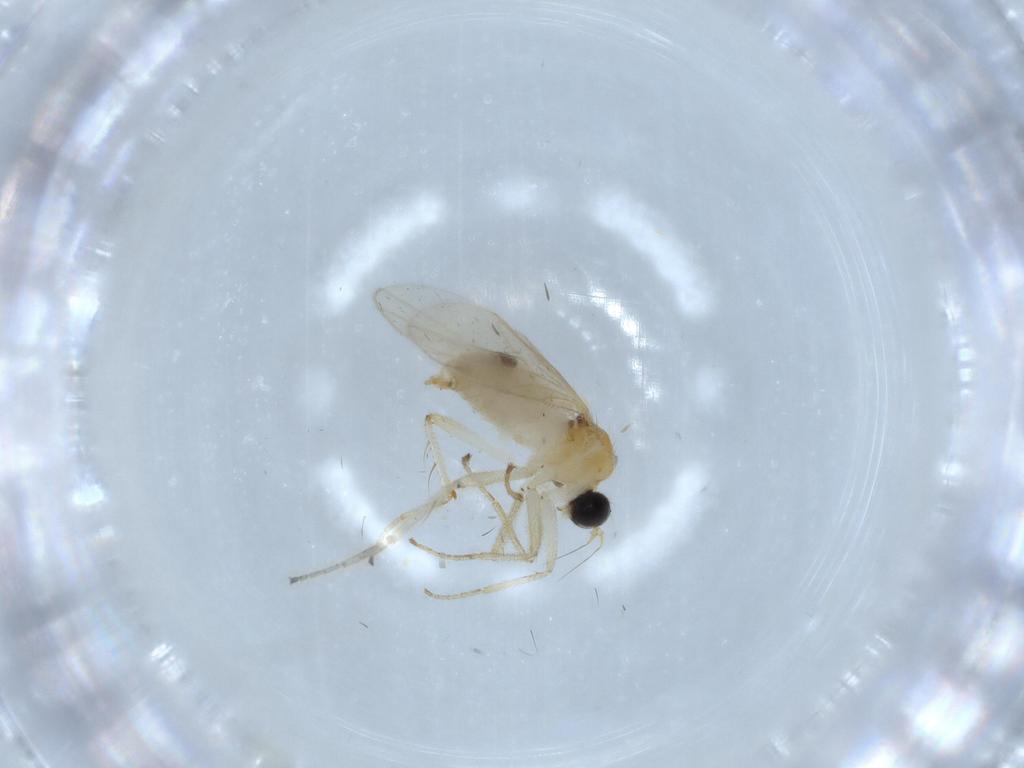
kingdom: Animalia
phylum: Arthropoda
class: Insecta
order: Diptera
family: Hybotidae
